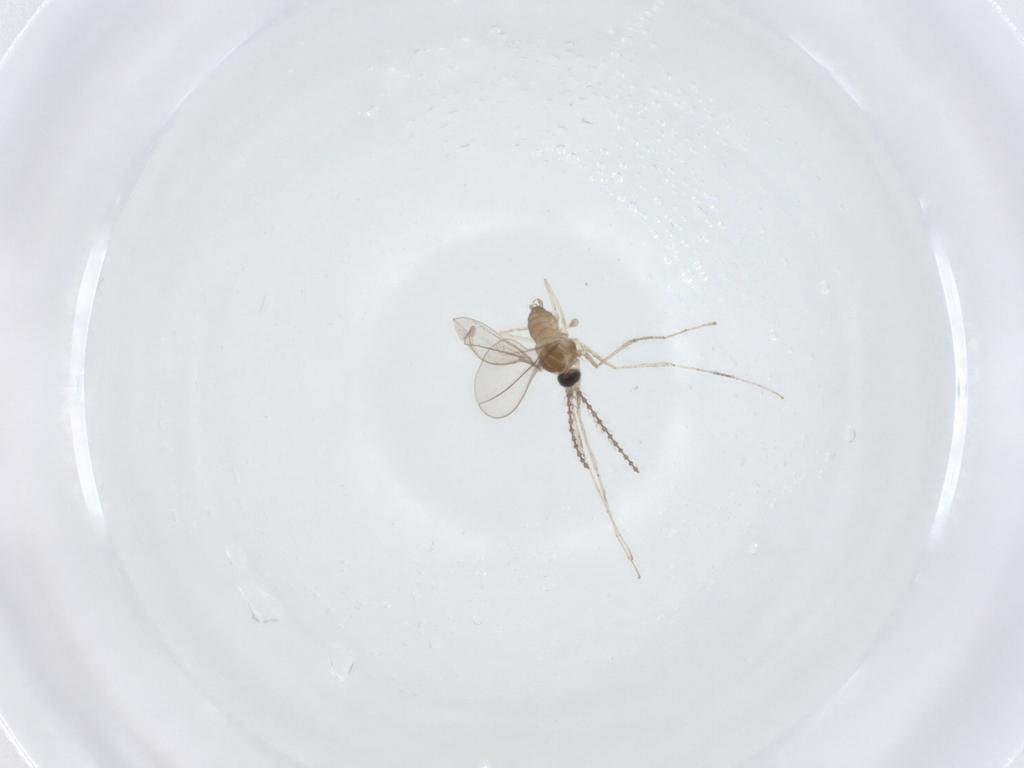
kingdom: Animalia
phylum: Arthropoda
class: Insecta
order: Diptera
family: Cecidomyiidae
